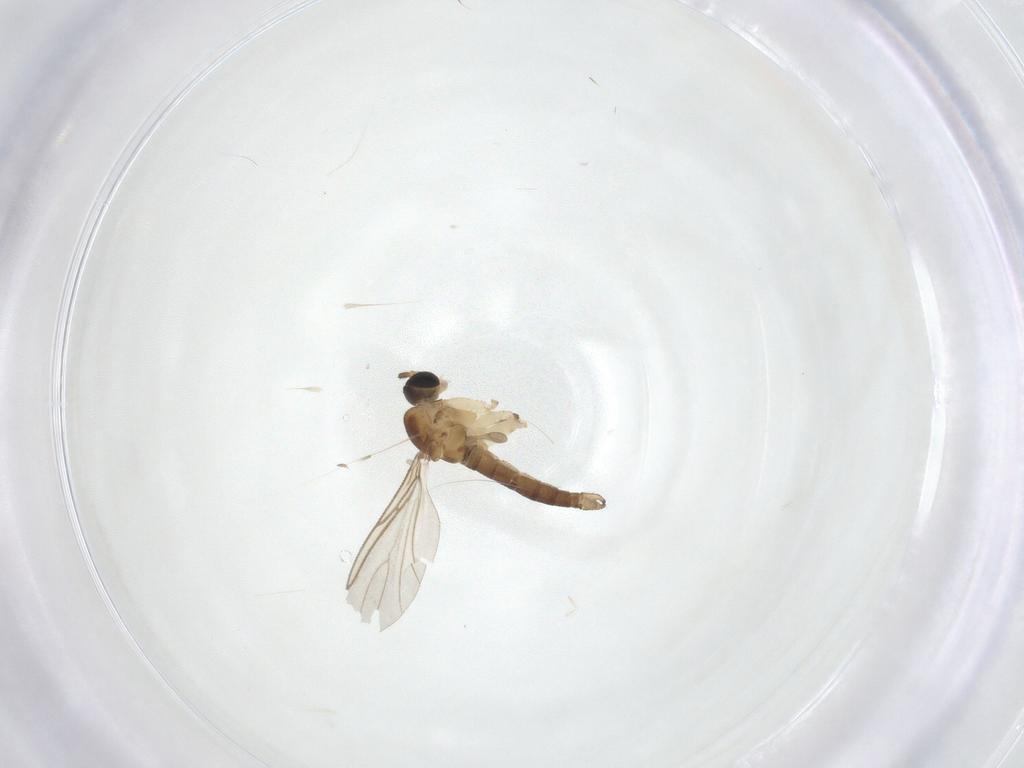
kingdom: Animalia
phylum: Arthropoda
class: Insecta
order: Diptera
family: Sciaridae
